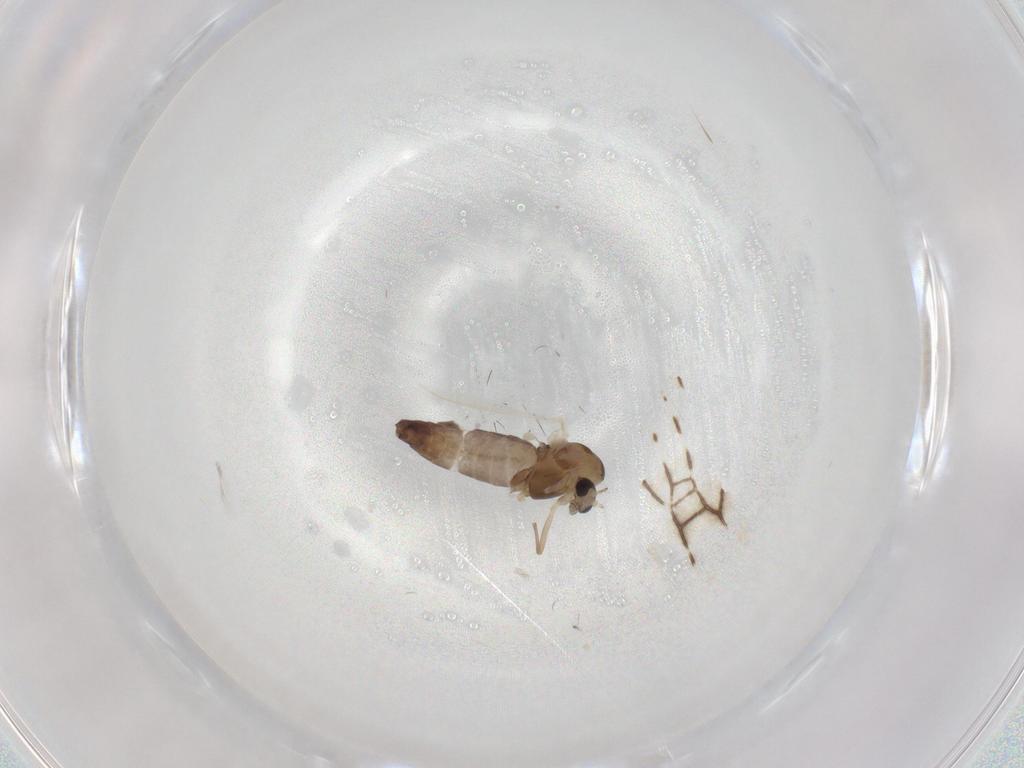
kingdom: Animalia
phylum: Arthropoda
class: Insecta
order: Diptera
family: Chironomidae
